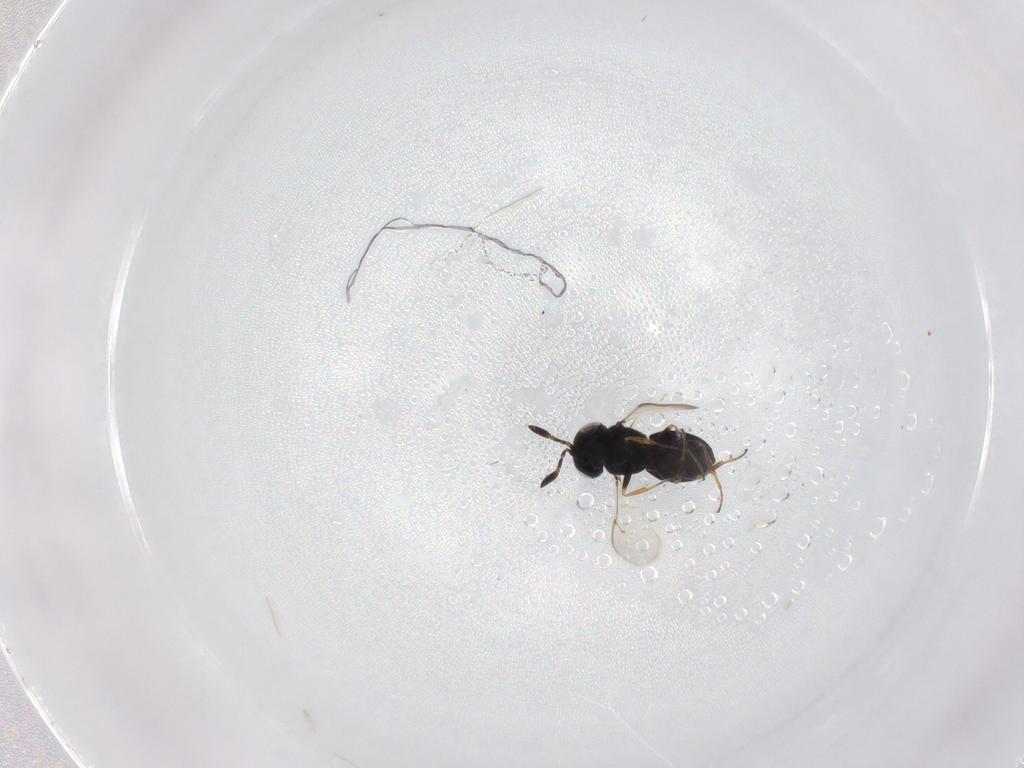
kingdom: Animalia
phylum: Arthropoda
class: Insecta
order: Hymenoptera
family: Scelionidae
